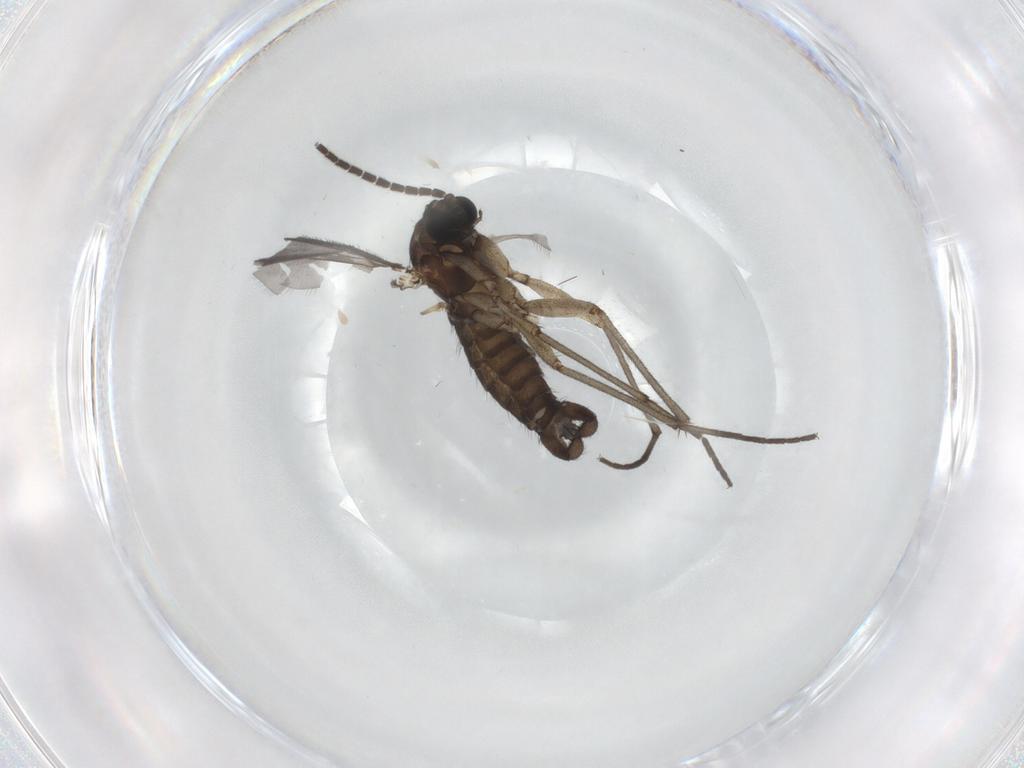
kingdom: Animalia
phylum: Arthropoda
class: Insecta
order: Diptera
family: Sciaridae
